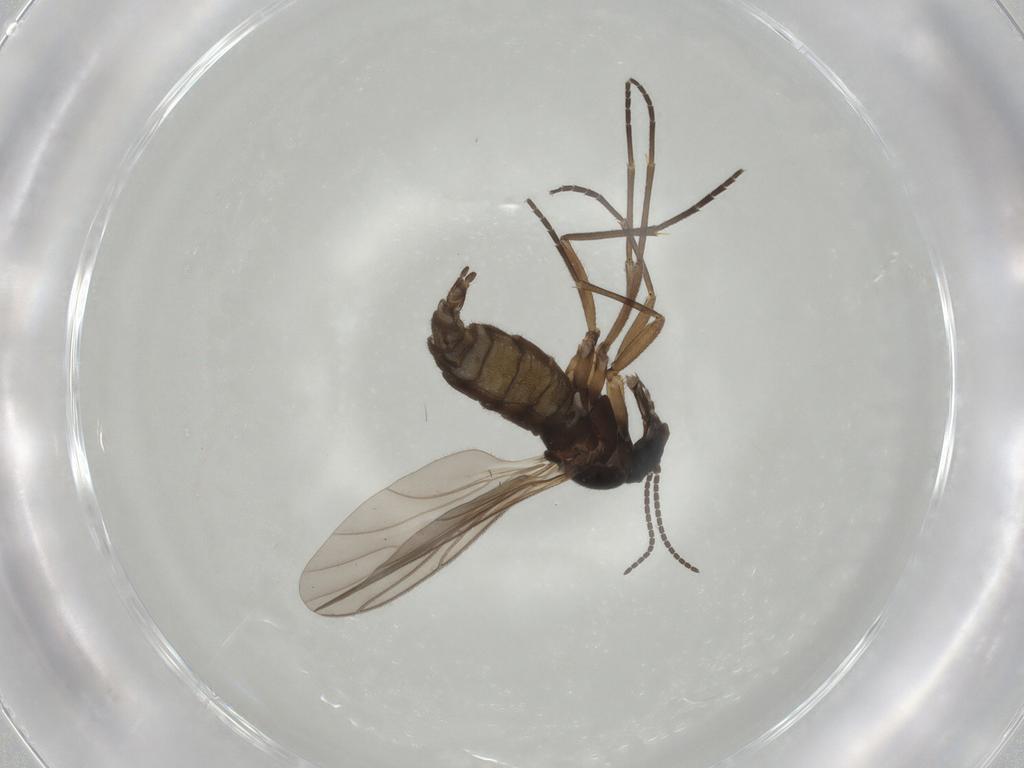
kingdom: Animalia
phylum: Arthropoda
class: Insecta
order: Diptera
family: Sciaridae
